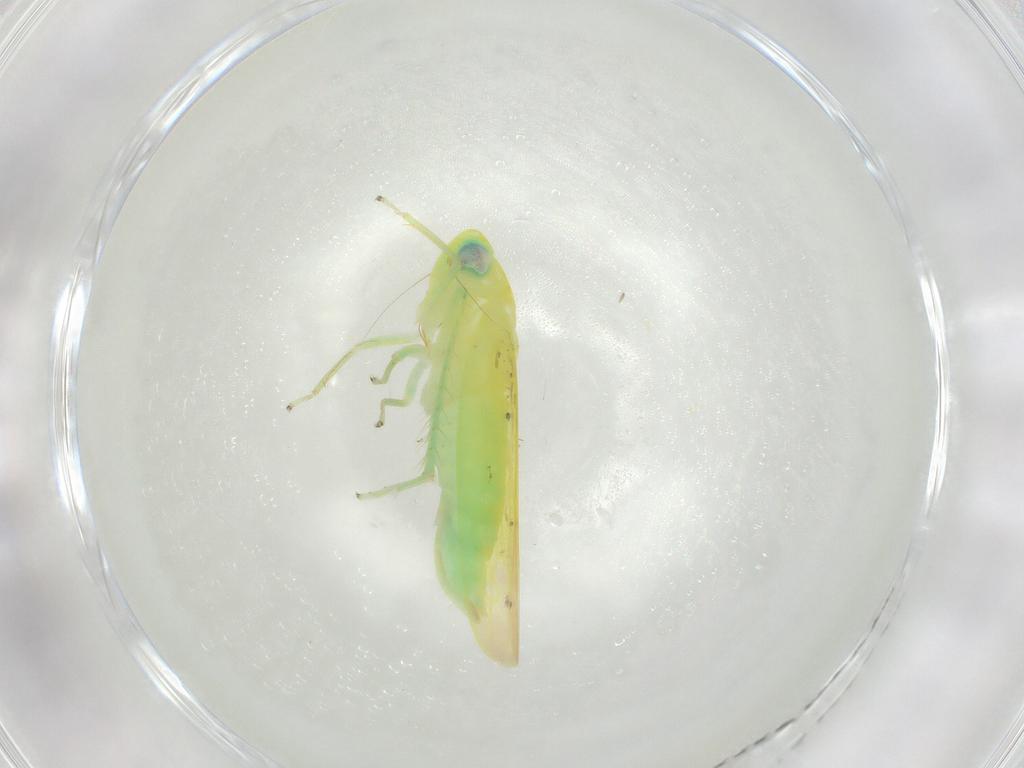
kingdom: Animalia
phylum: Arthropoda
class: Insecta
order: Hemiptera
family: Cicadellidae
